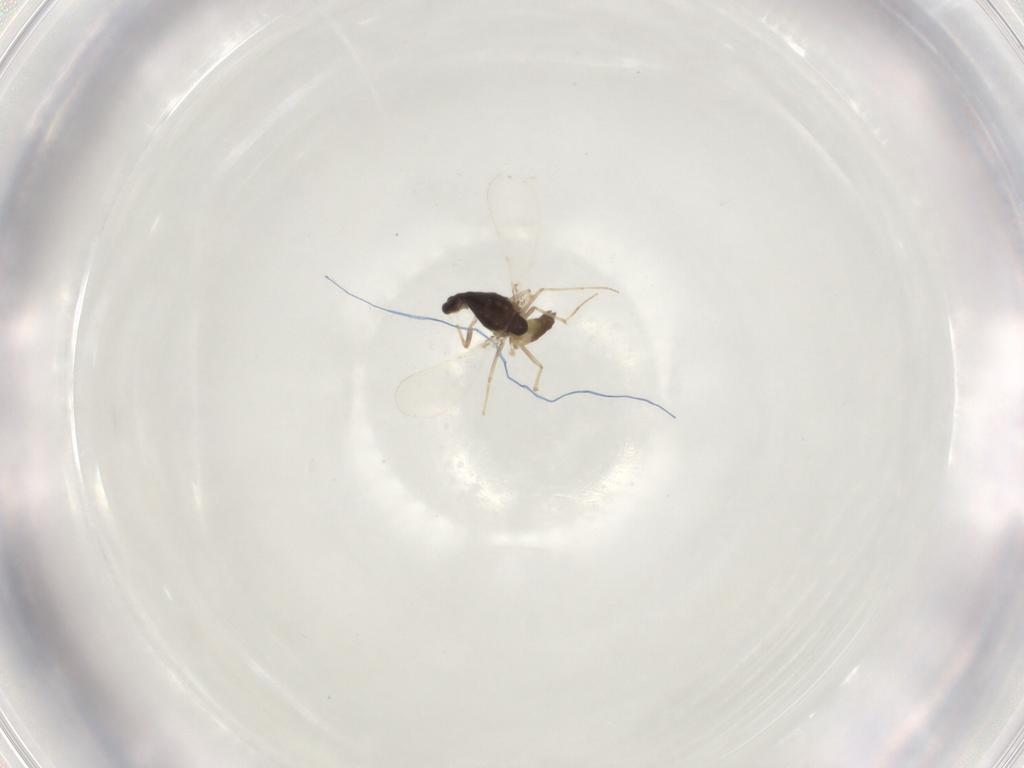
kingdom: Animalia
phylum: Arthropoda
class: Insecta
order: Diptera
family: Chironomidae
